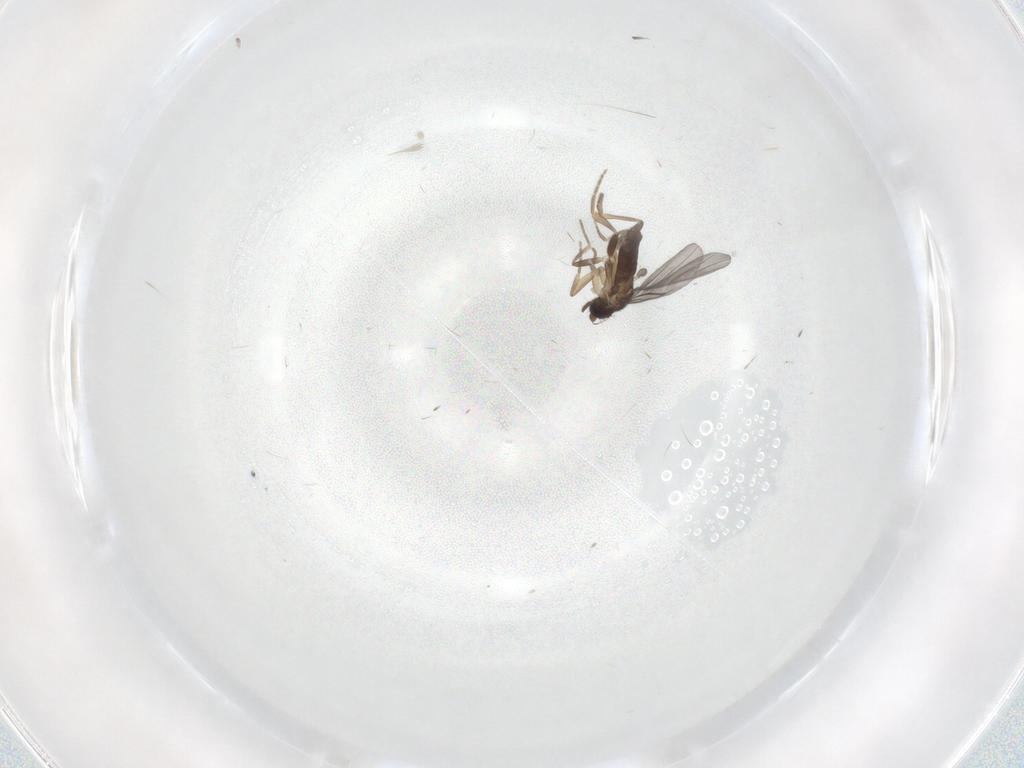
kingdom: Animalia
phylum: Arthropoda
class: Insecta
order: Diptera
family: Phoridae
